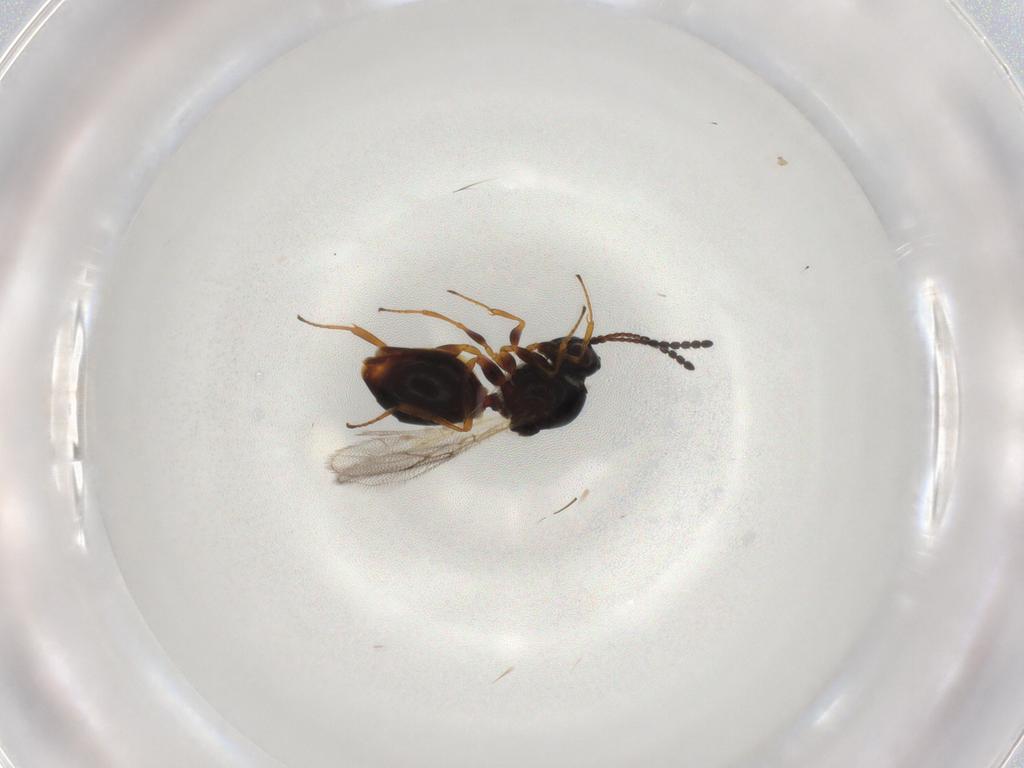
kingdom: Animalia
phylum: Arthropoda
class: Insecta
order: Hymenoptera
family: Figitidae
